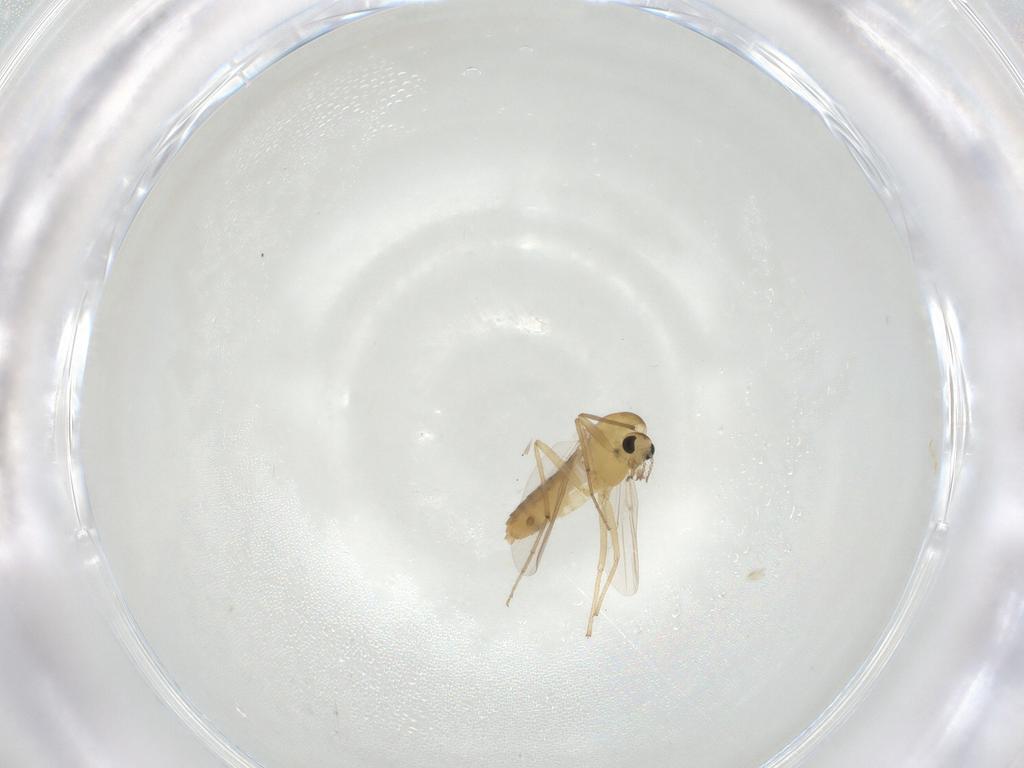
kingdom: Animalia
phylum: Arthropoda
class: Insecta
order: Diptera
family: Chironomidae
